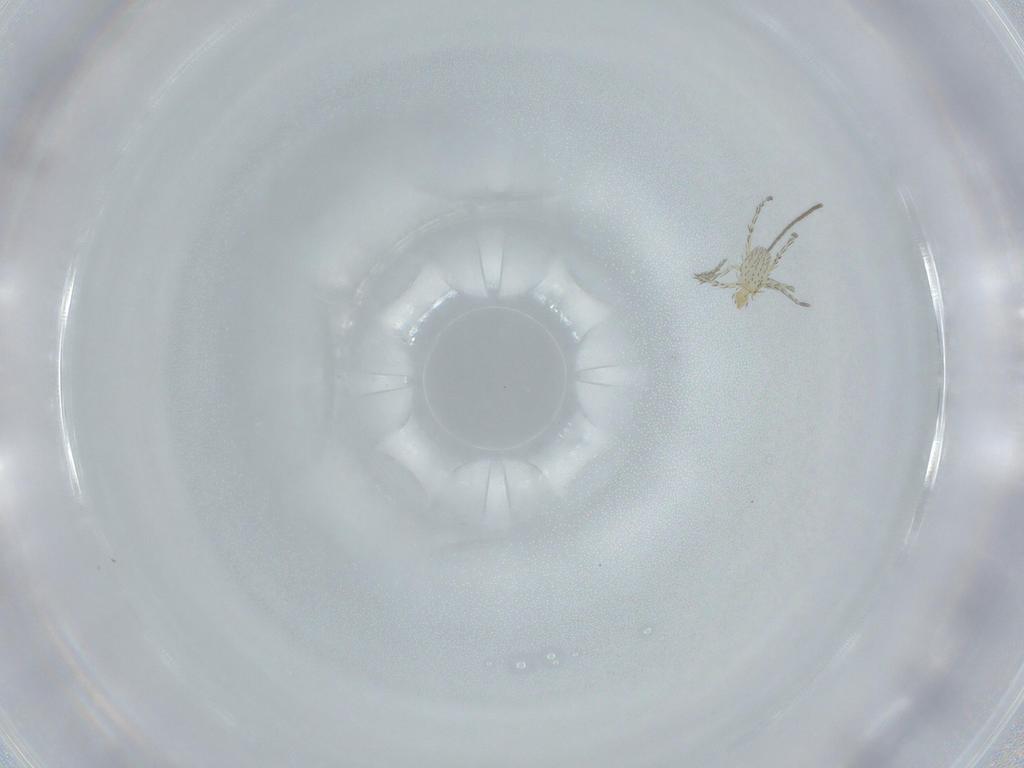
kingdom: Animalia
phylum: Arthropoda
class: Arachnida
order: Trombidiformes
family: Erythraeidae
